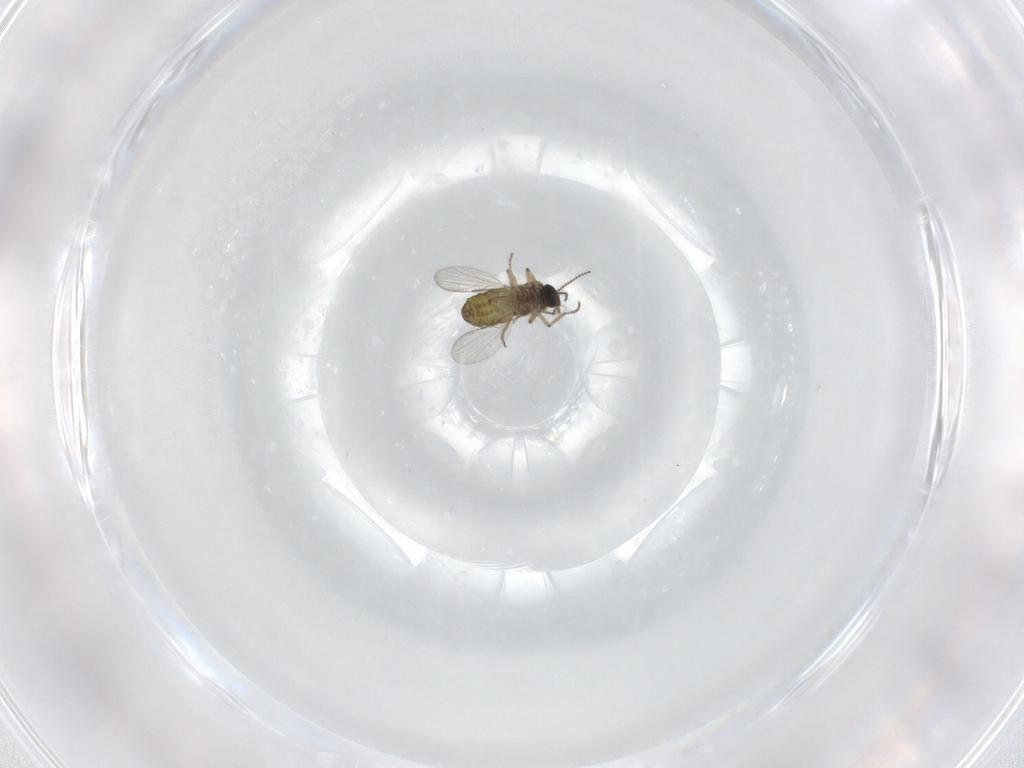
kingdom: Animalia
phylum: Arthropoda
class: Insecta
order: Diptera
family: Ceratopogonidae
